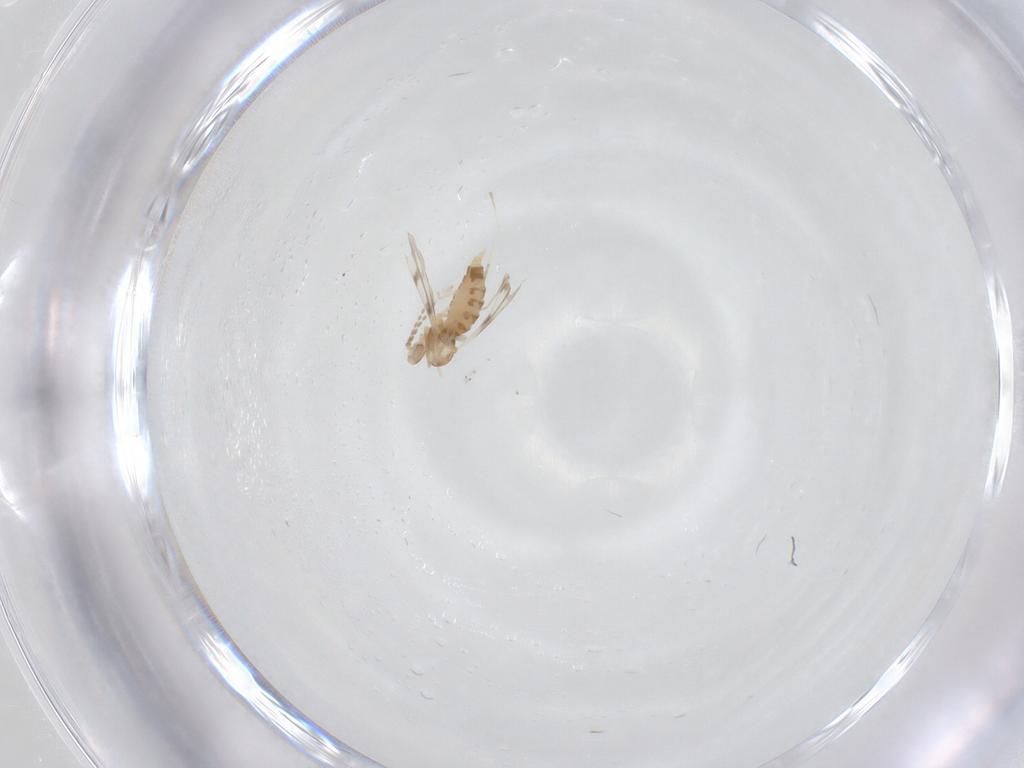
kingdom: Animalia
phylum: Arthropoda
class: Insecta
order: Diptera
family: Cecidomyiidae
